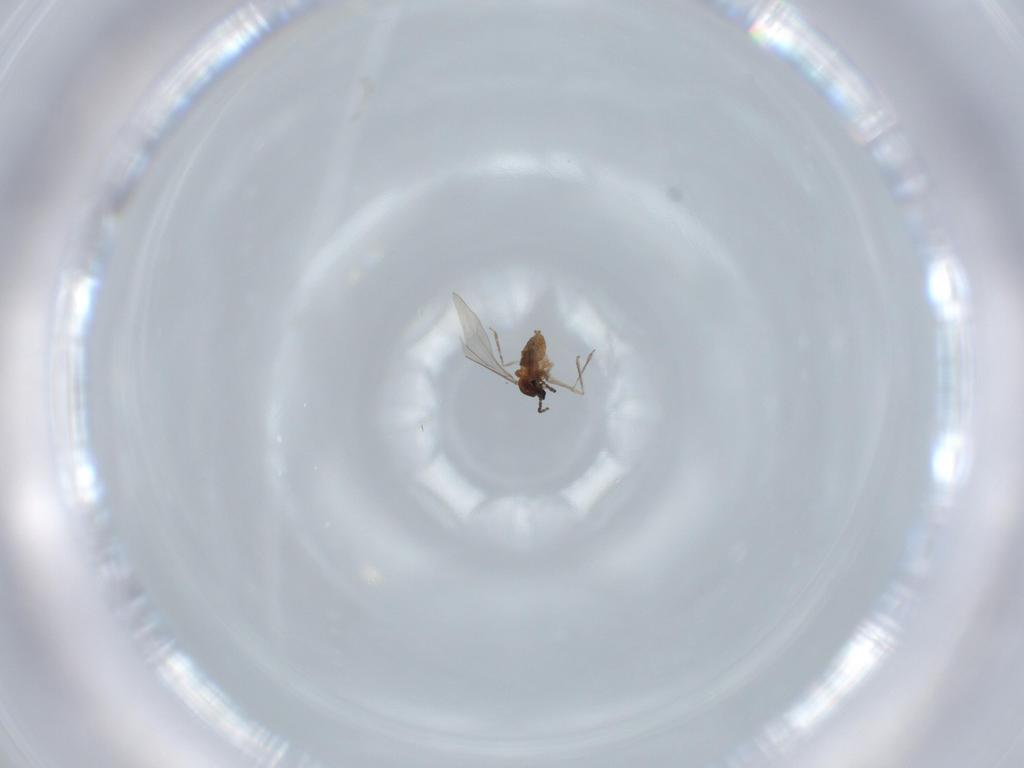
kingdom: Animalia
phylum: Arthropoda
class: Insecta
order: Diptera
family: Cecidomyiidae
